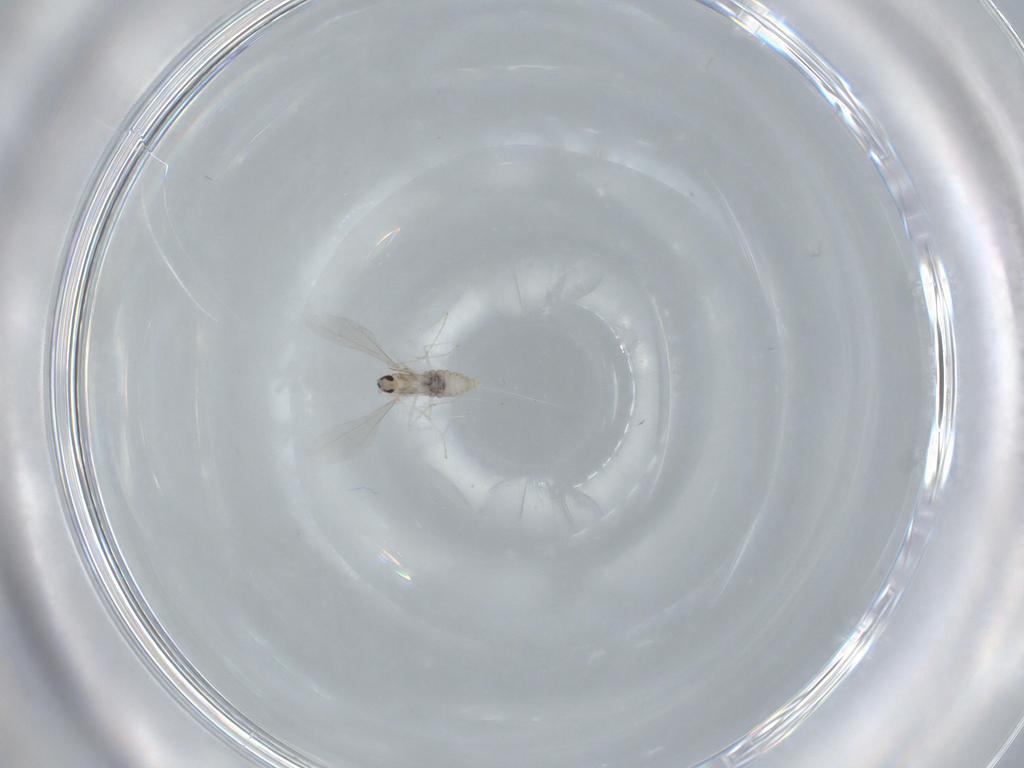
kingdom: Animalia
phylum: Arthropoda
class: Insecta
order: Diptera
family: Cecidomyiidae
